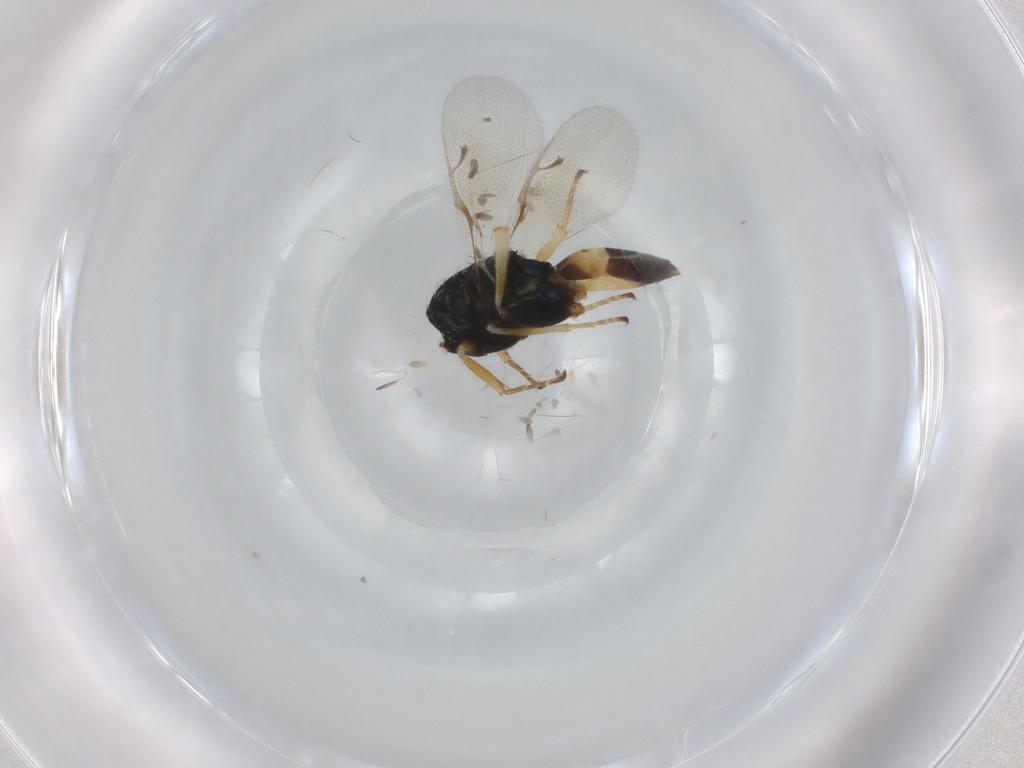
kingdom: Animalia
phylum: Arthropoda
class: Insecta
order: Hymenoptera
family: Pteromalidae
